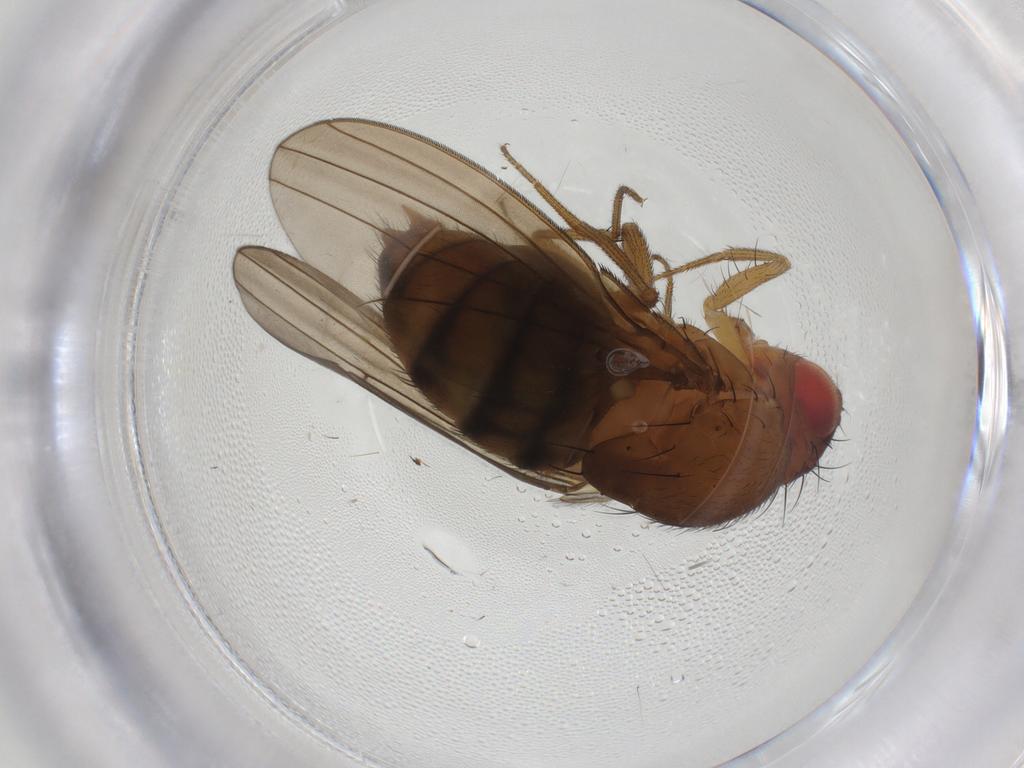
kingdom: Animalia
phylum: Arthropoda
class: Insecta
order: Diptera
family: Drosophilidae
